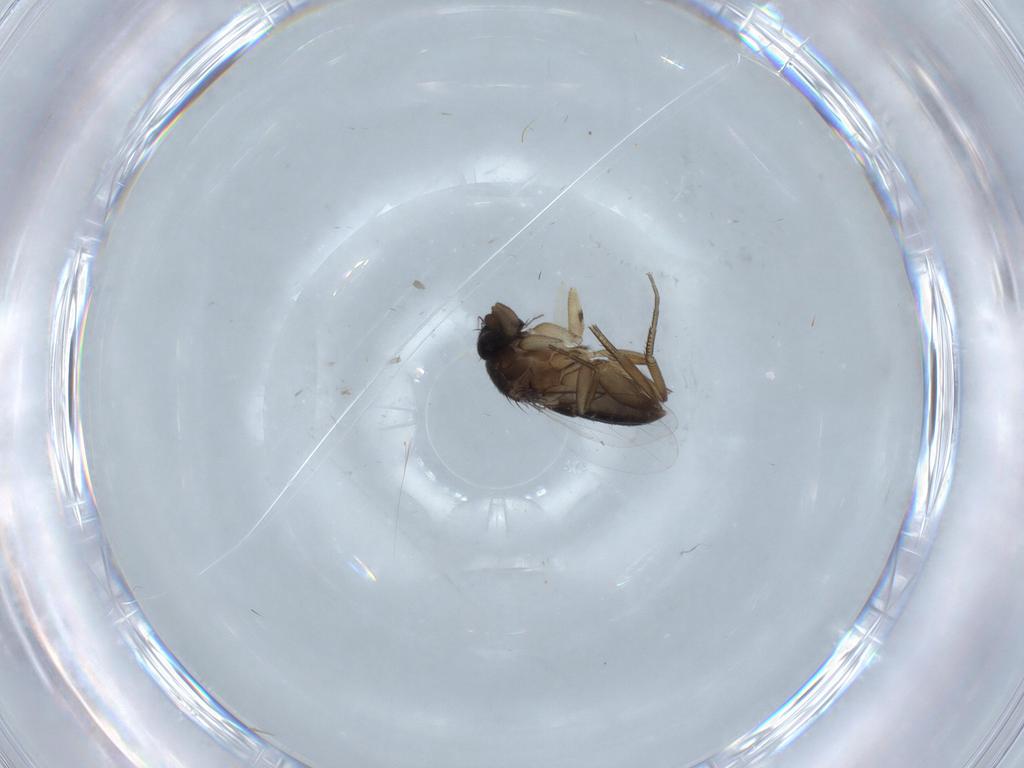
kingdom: Animalia
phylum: Arthropoda
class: Insecta
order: Diptera
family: Phoridae
